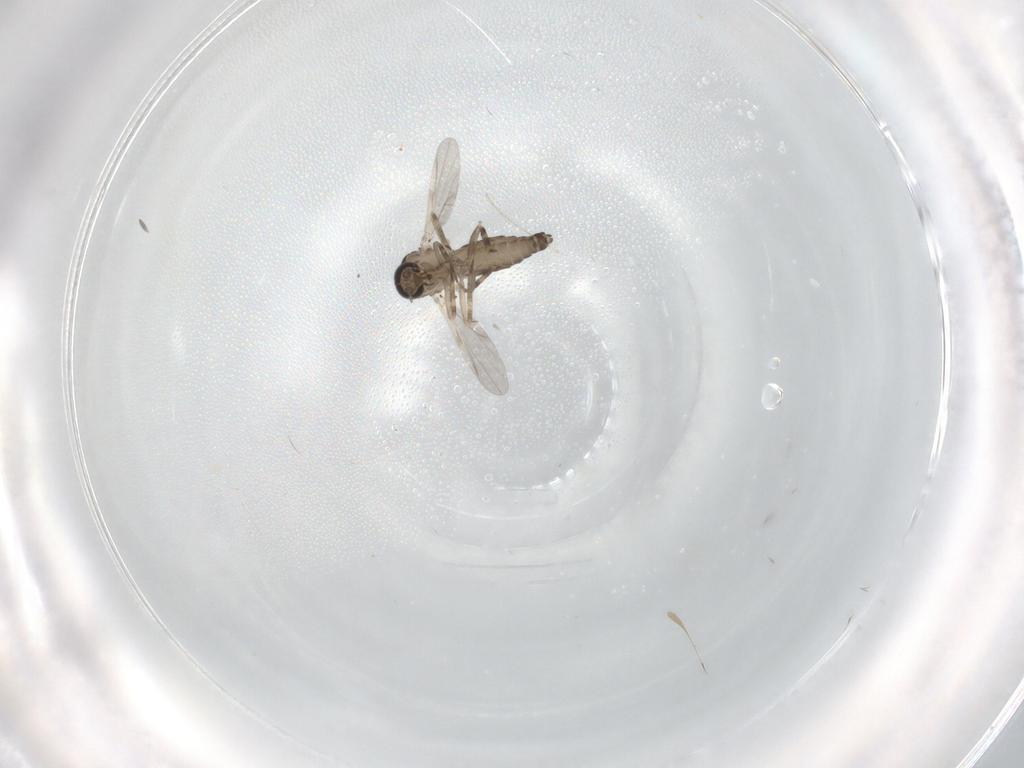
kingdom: Animalia
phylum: Arthropoda
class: Insecta
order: Diptera
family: Ceratopogonidae
